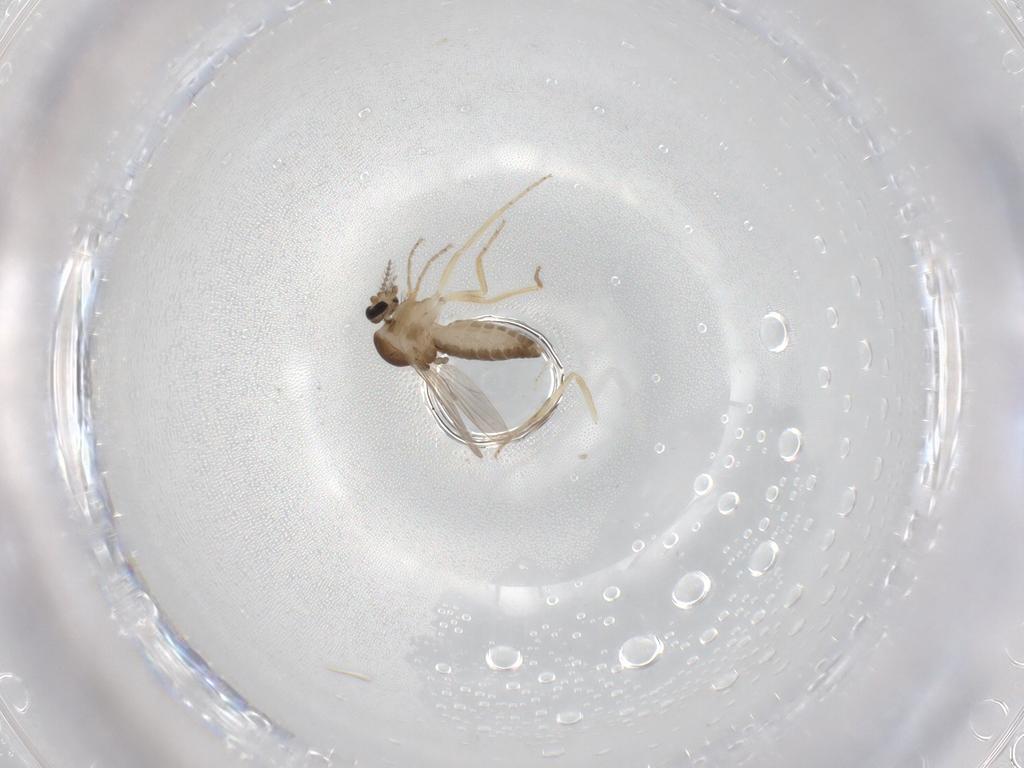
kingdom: Animalia
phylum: Arthropoda
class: Insecta
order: Diptera
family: Ceratopogonidae
